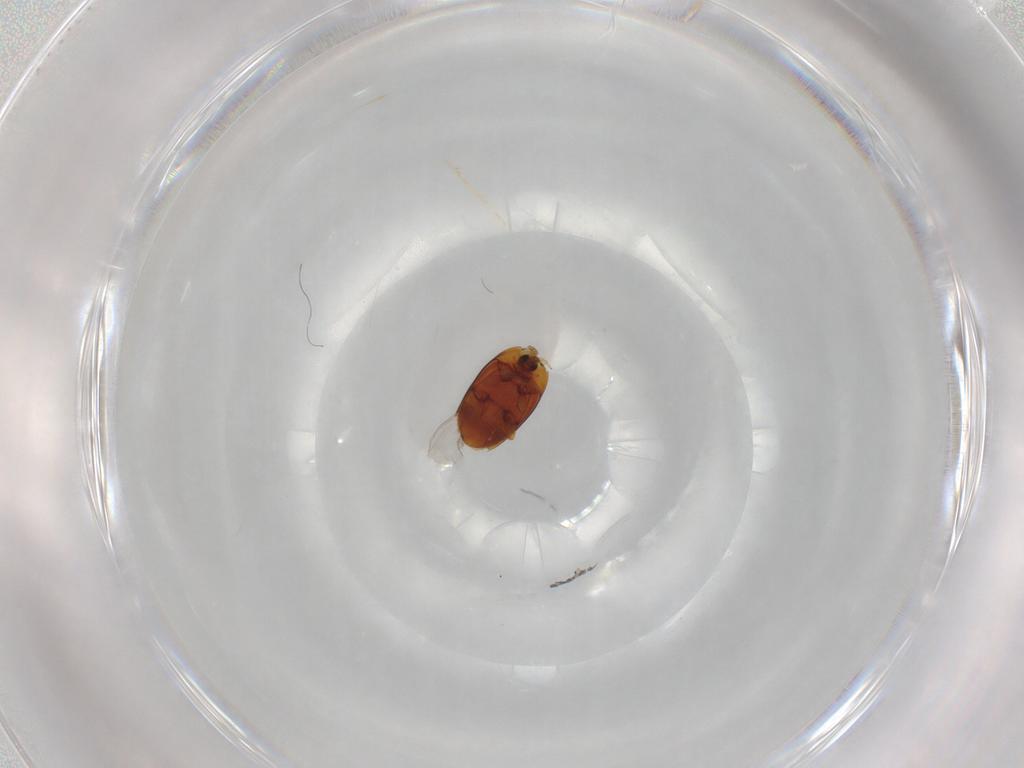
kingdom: Animalia
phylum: Arthropoda
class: Insecta
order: Coleoptera
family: Corylophidae
